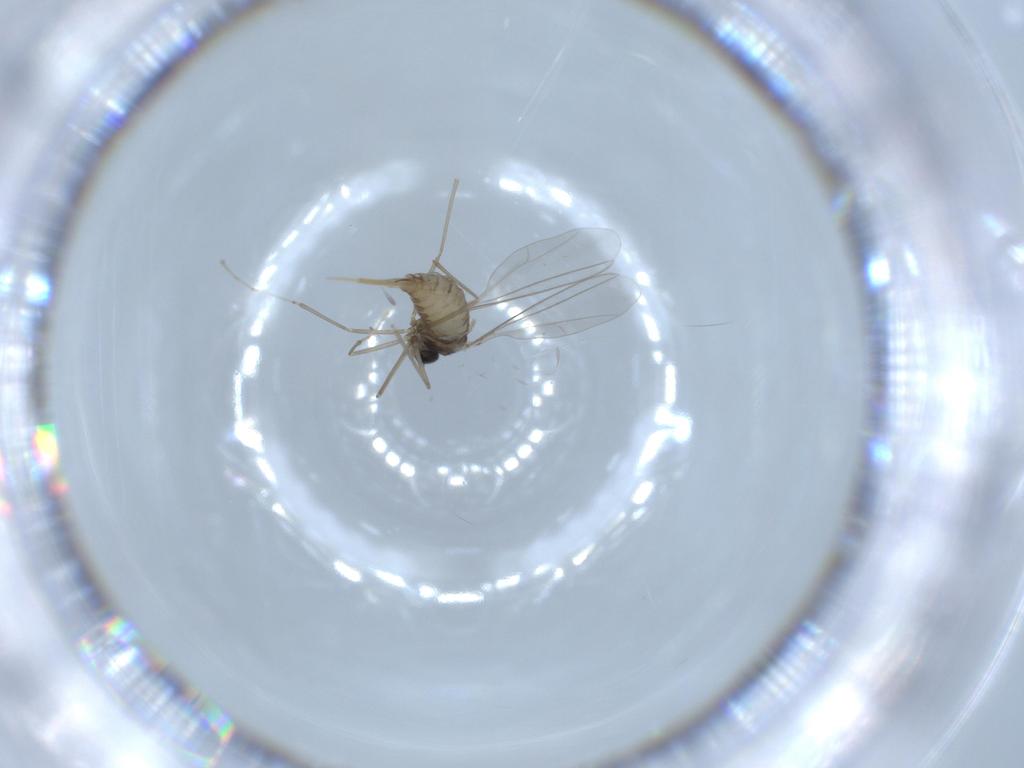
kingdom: Animalia
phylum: Arthropoda
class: Insecta
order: Diptera
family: Cecidomyiidae
